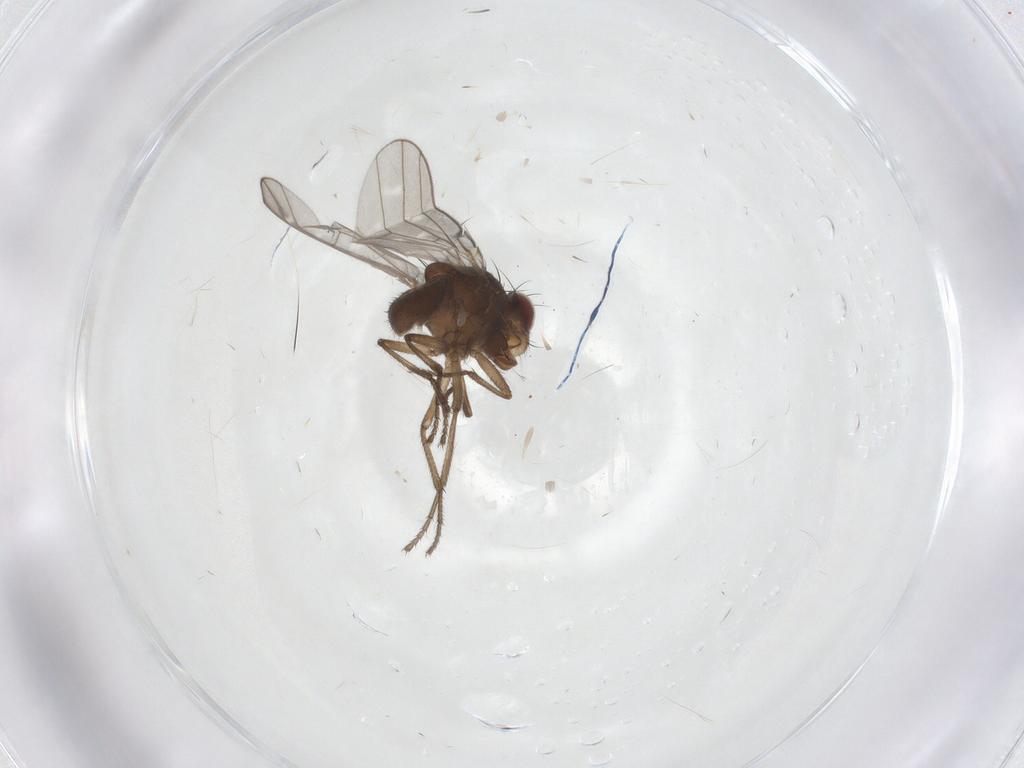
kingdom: Animalia
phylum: Arthropoda
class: Insecta
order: Diptera
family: Ephydridae
